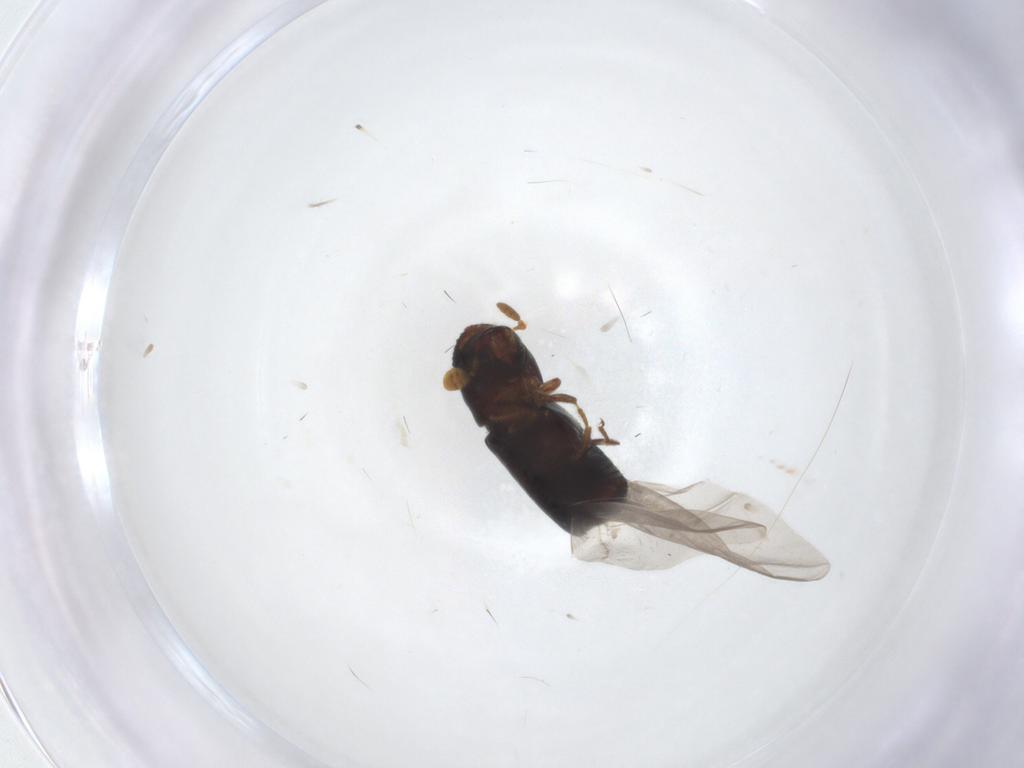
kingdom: Animalia
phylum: Arthropoda
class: Insecta
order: Coleoptera
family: Curculionidae
